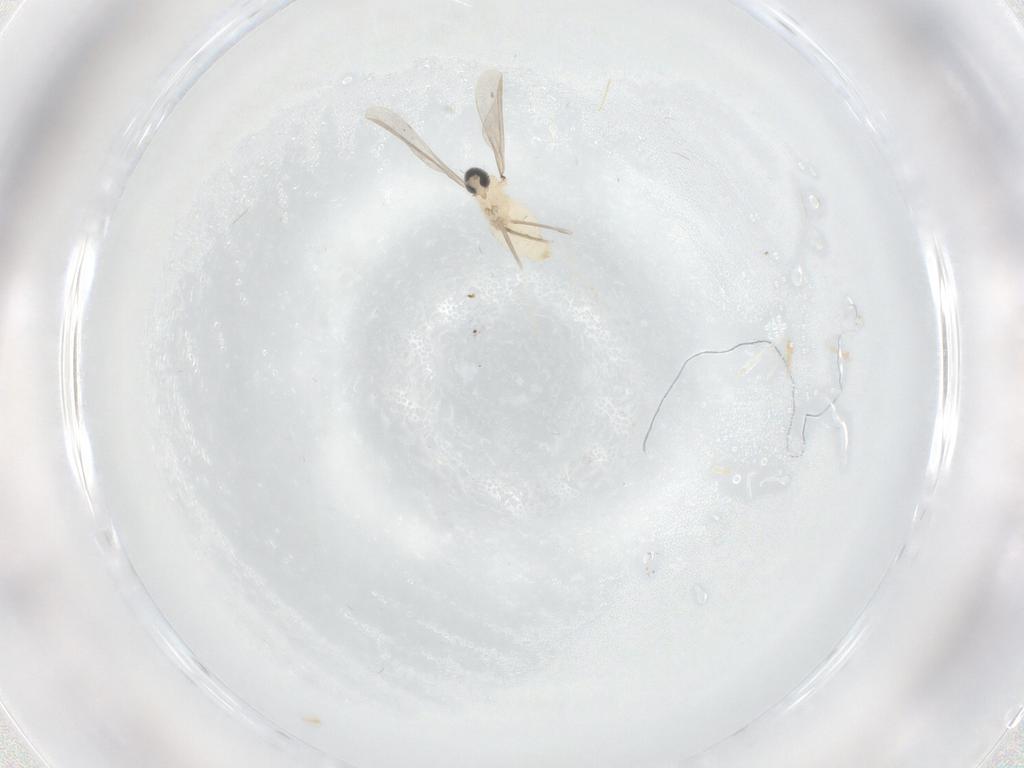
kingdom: Animalia
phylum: Arthropoda
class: Insecta
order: Diptera
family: Cecidomyiidae
